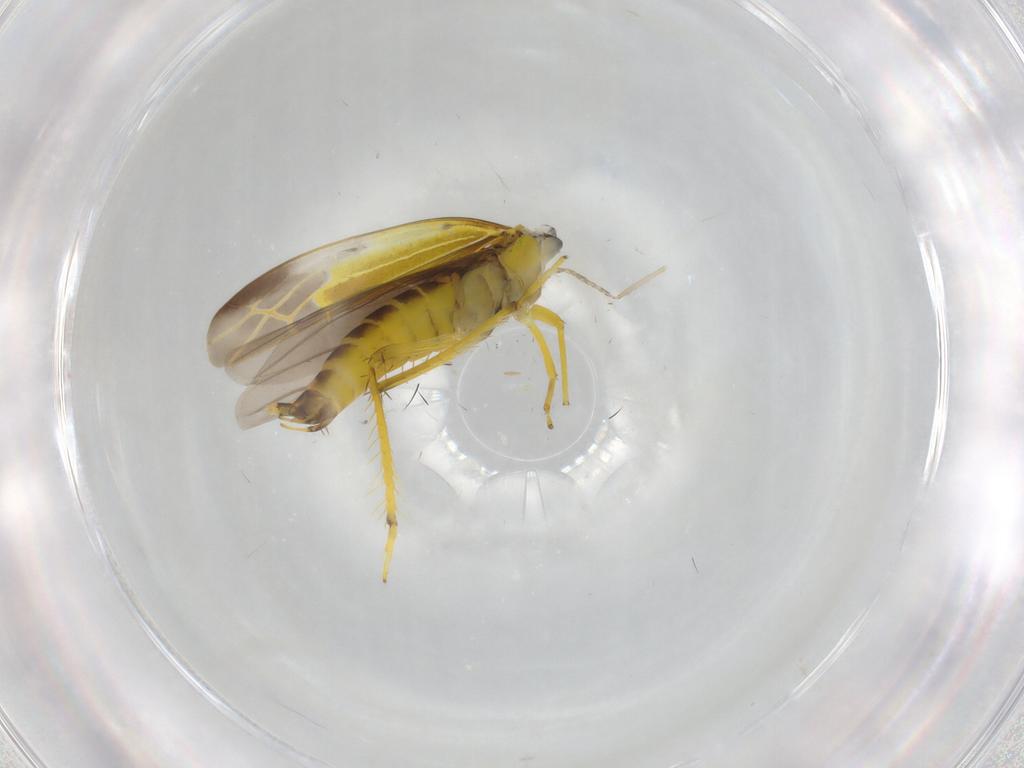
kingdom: Animalia
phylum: Arthropoda
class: Insecta
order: Hemiptera
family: Cicadellidae
